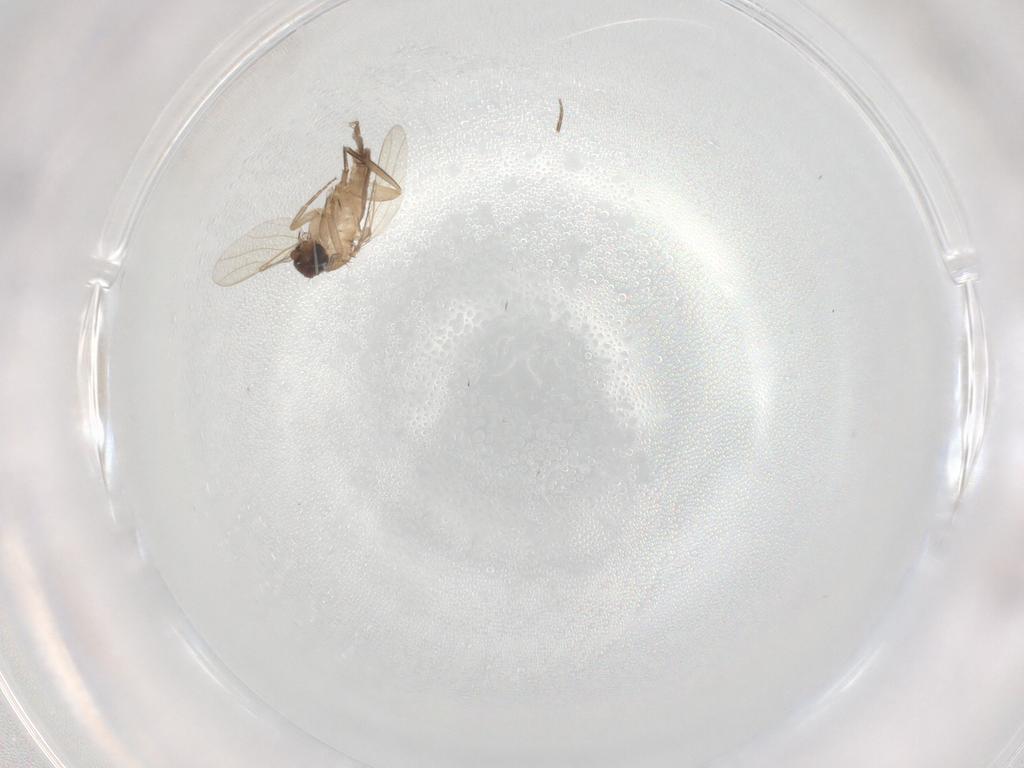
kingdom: Animalia
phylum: Arthropoda
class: Insecta
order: Diptera
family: Phoridae
